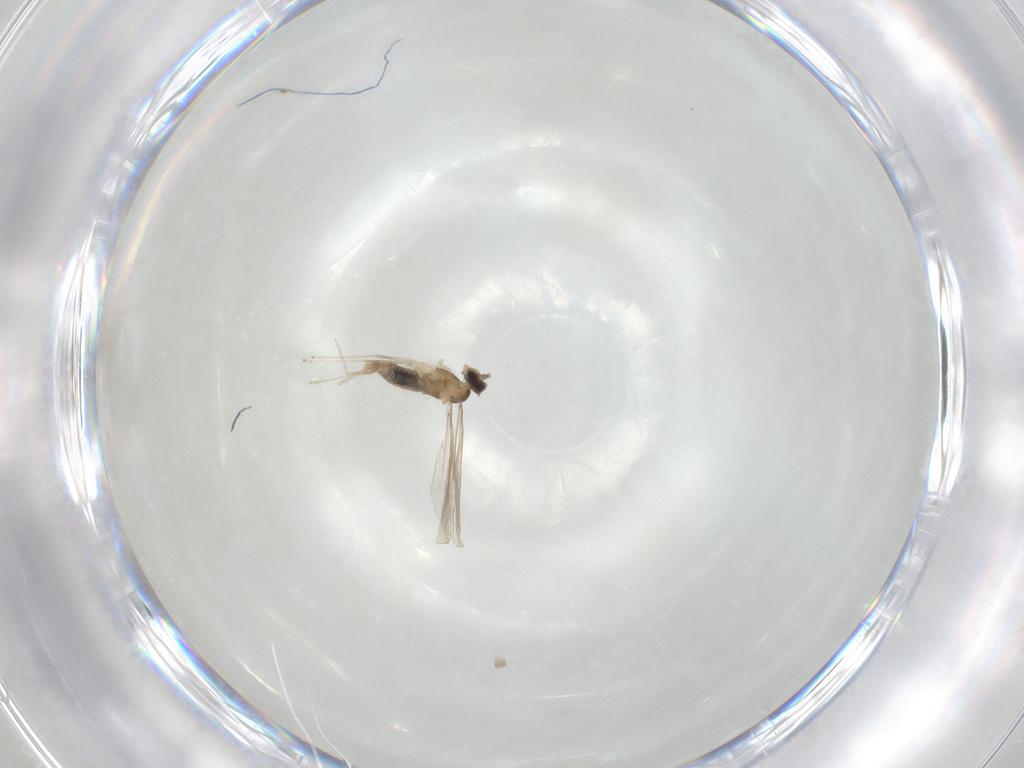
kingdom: Animalia
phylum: Arthropoda
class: Insecta
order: Diptera
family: Cecidomyiidae
